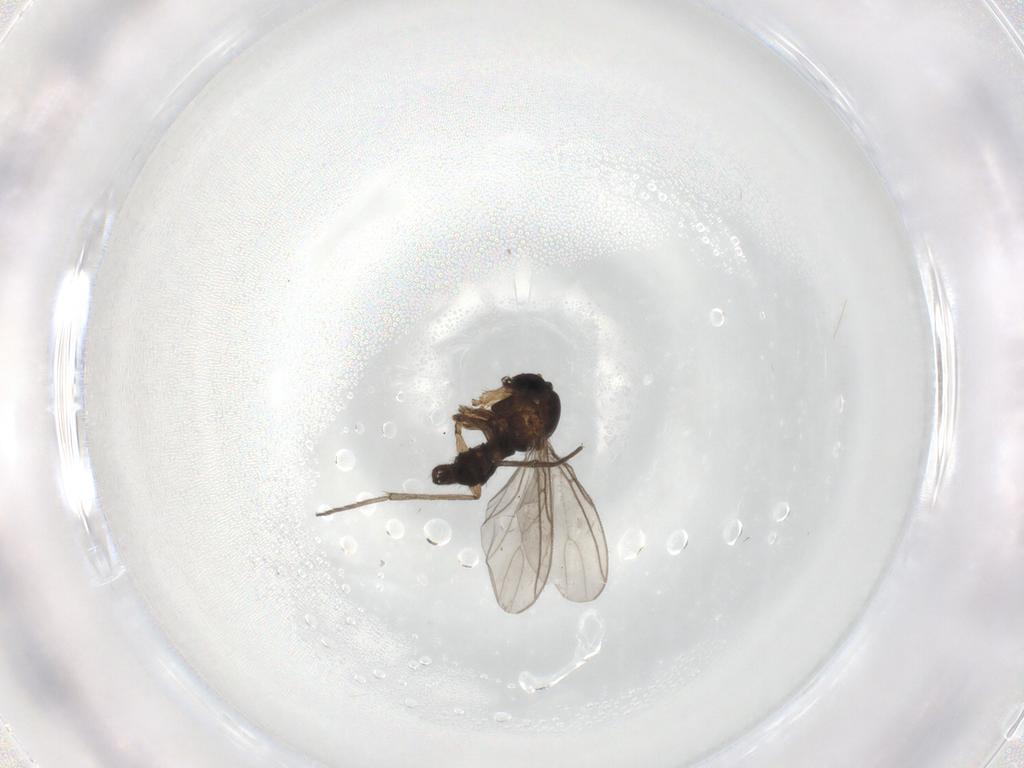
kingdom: Animalia
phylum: Arthropoda
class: Insecta
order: Diptera
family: Sciaridae
